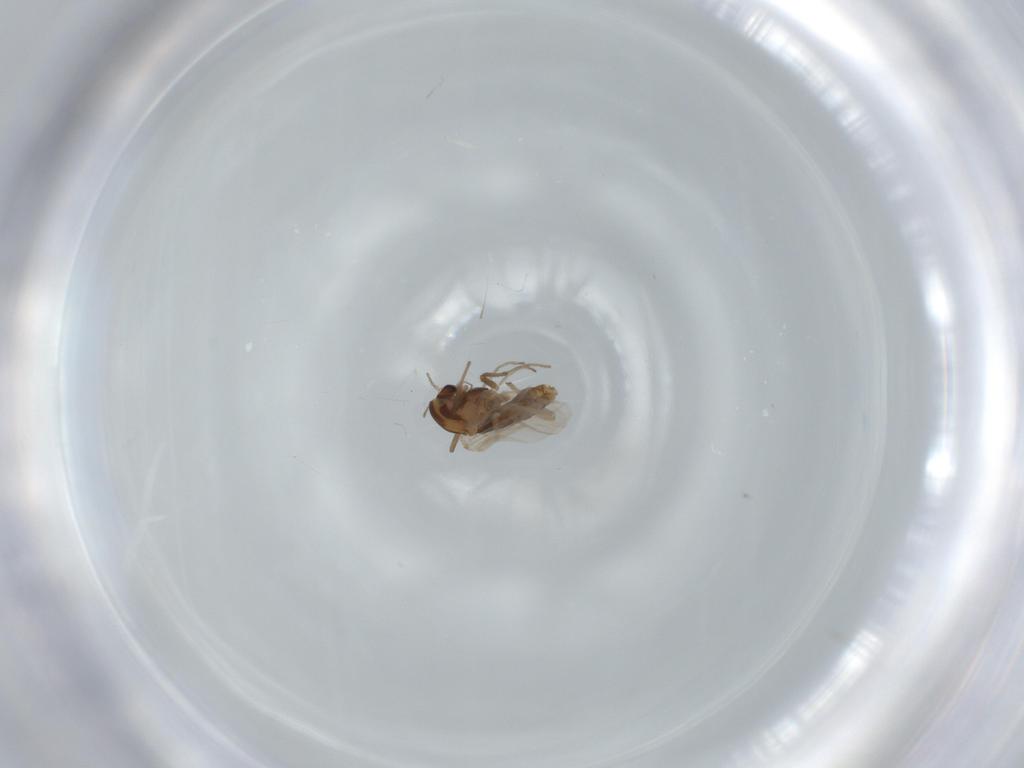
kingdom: Animalia
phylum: Arthropoda
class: Insecta
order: Diptera
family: Chironomidae
